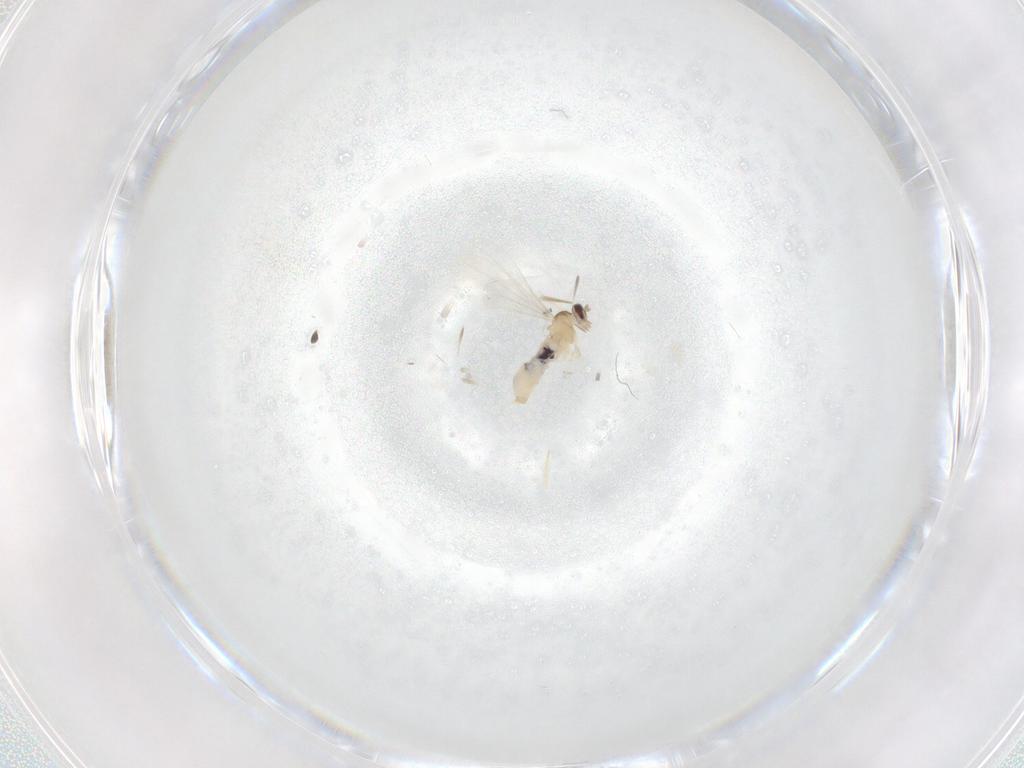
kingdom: Animalia
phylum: Arthropoda
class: Insecta
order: Diptera
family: Cecidomyiidae
